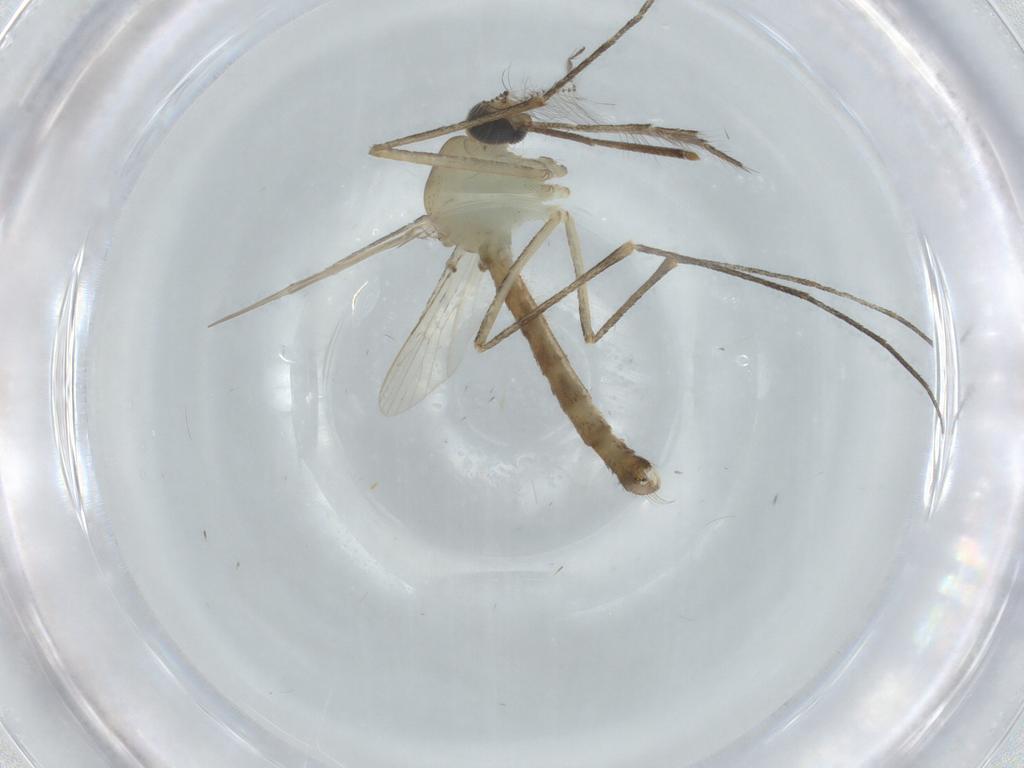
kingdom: Animalia
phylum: Arthropoda
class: Insecta
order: Diptera
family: Culicidae
